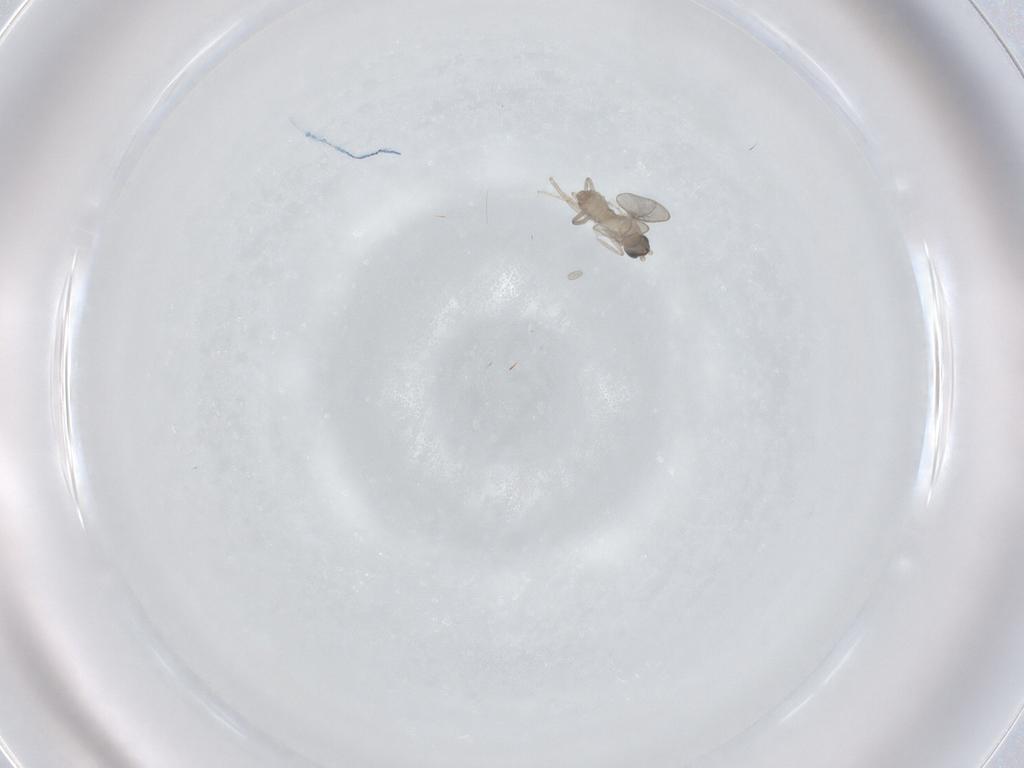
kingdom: Animalia
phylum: Arthropoda
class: Insecta
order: Diptera
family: Cecidomyiidae
